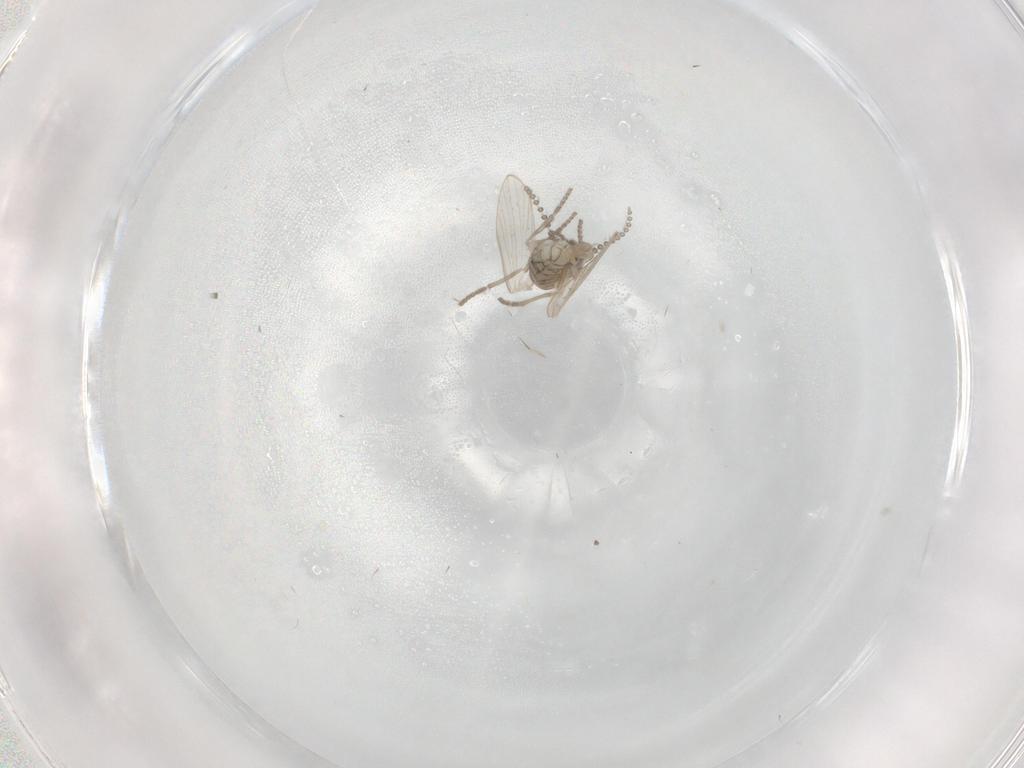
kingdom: Animalia
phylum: Arthropoda
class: Insecta
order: Diptera
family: Psychodidae
